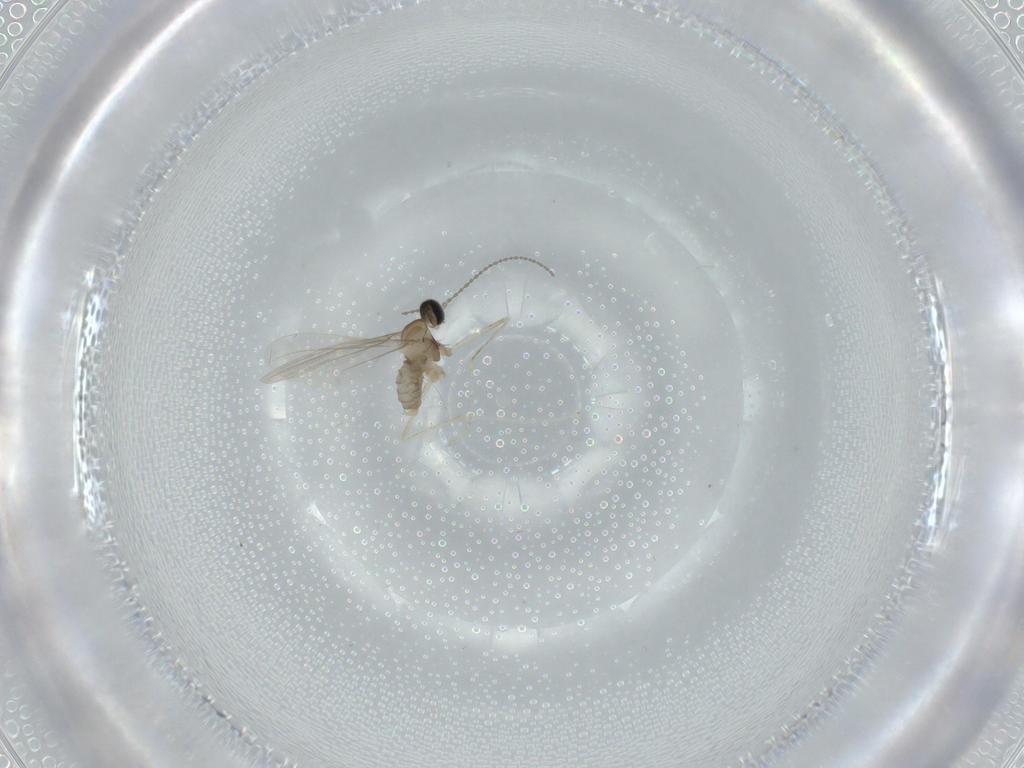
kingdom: Animalia
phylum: Arthropoda
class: Insecta
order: Diptera
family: Cecidomyiidae
